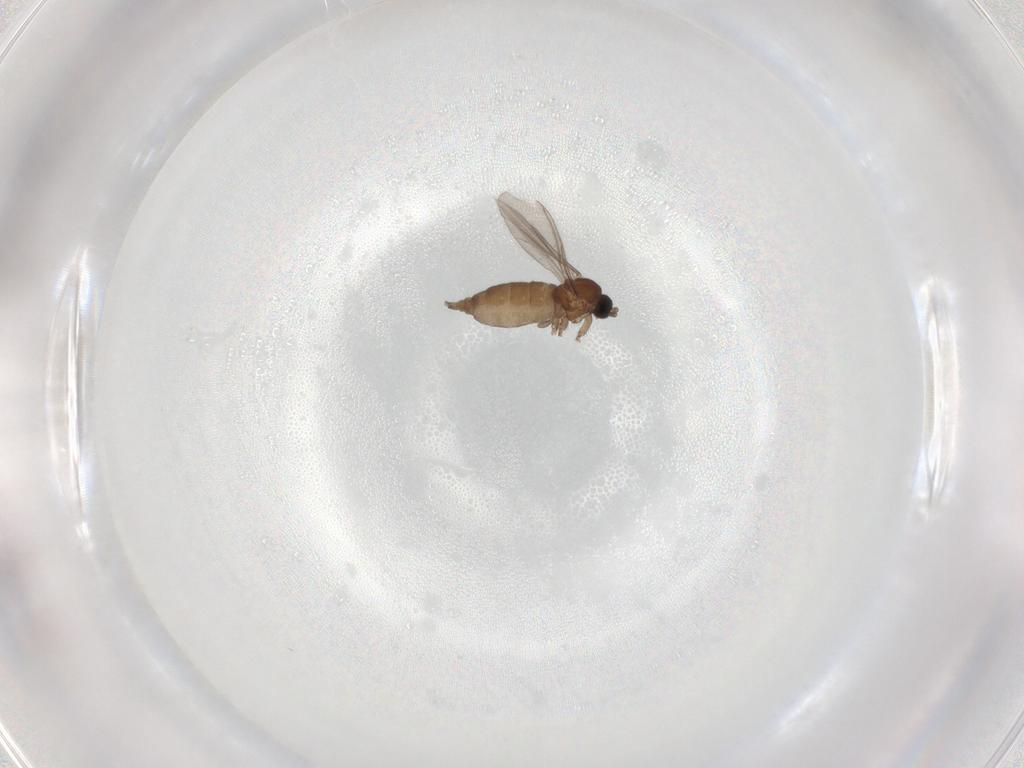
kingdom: Animalia
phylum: Arthropoda
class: Insecta
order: Diptera
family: Sciaridae
